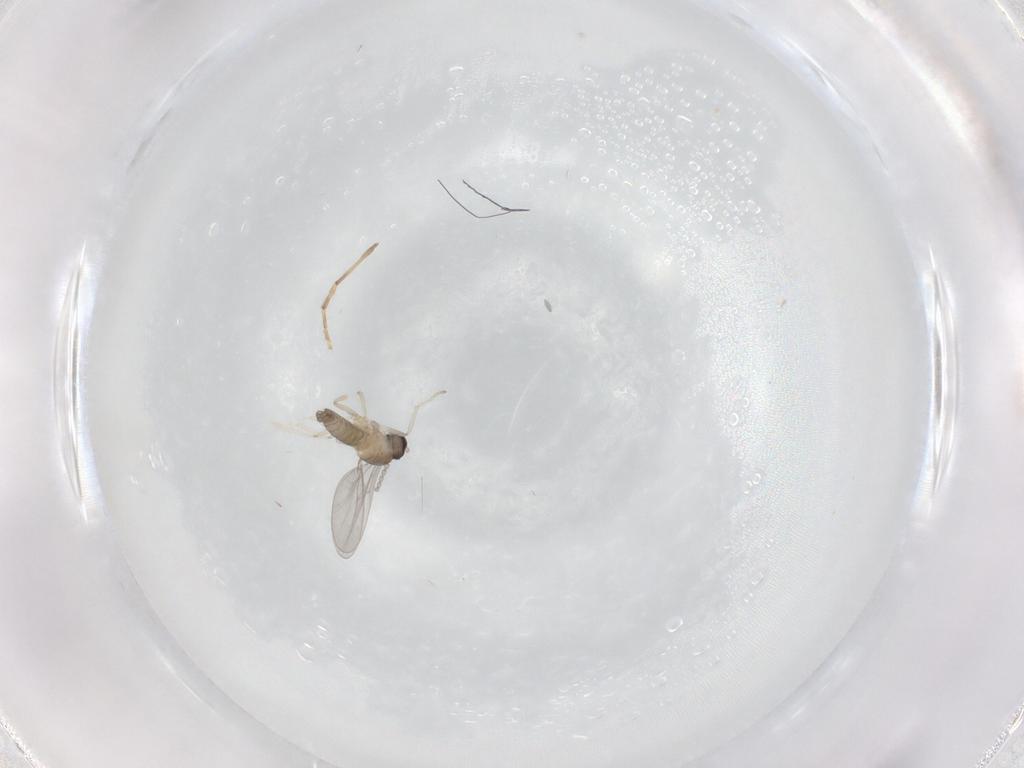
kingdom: Animalia
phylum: Arthropoda
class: Insecta
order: Diptera
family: Cecidomyiidae
